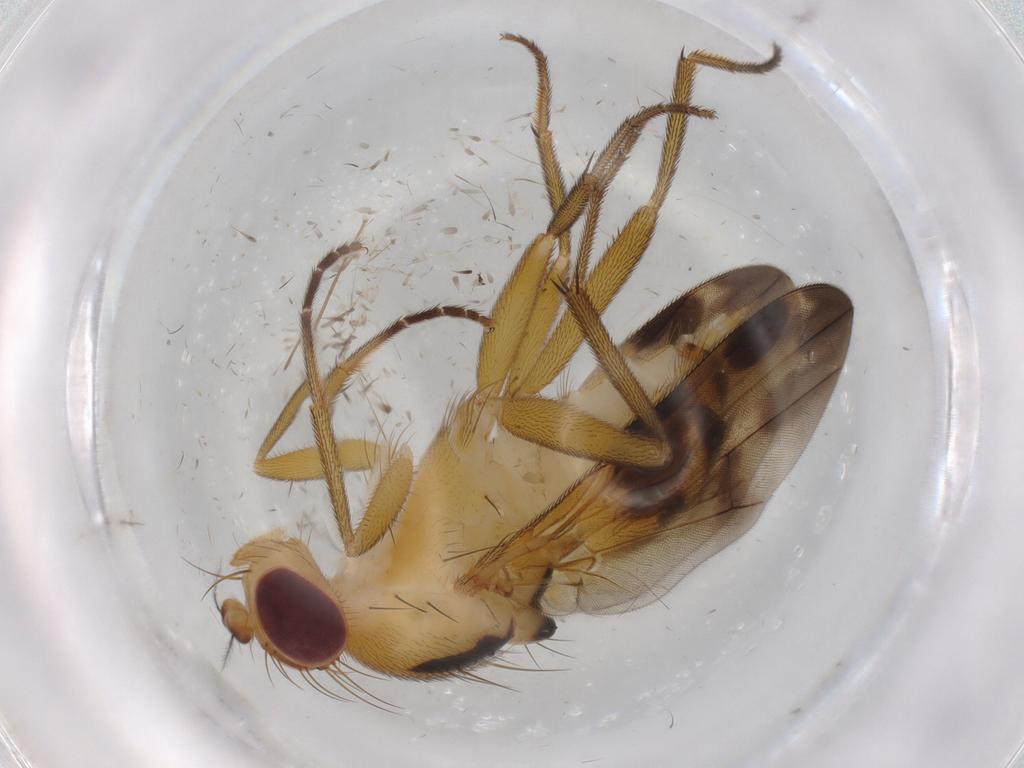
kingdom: Animalia
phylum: Arthropoda
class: Insecta
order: Diptera
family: Clusiidae
